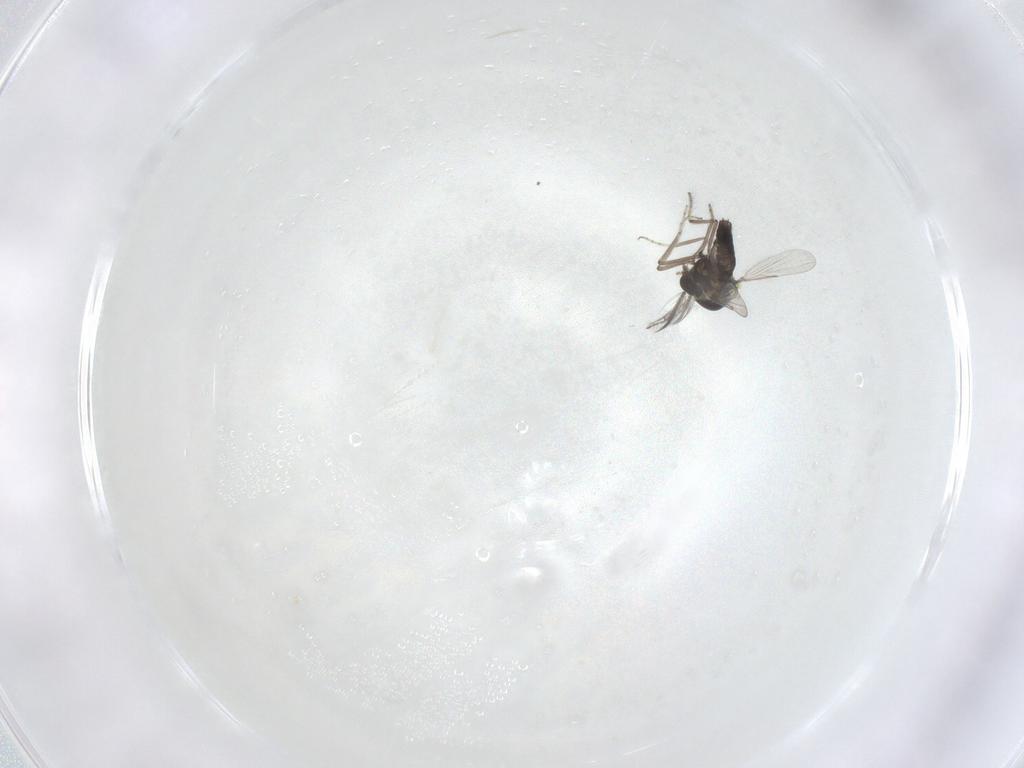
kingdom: Animalia
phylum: Arthropoda
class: Insecta
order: Diptera
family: Ceratopogonidae
